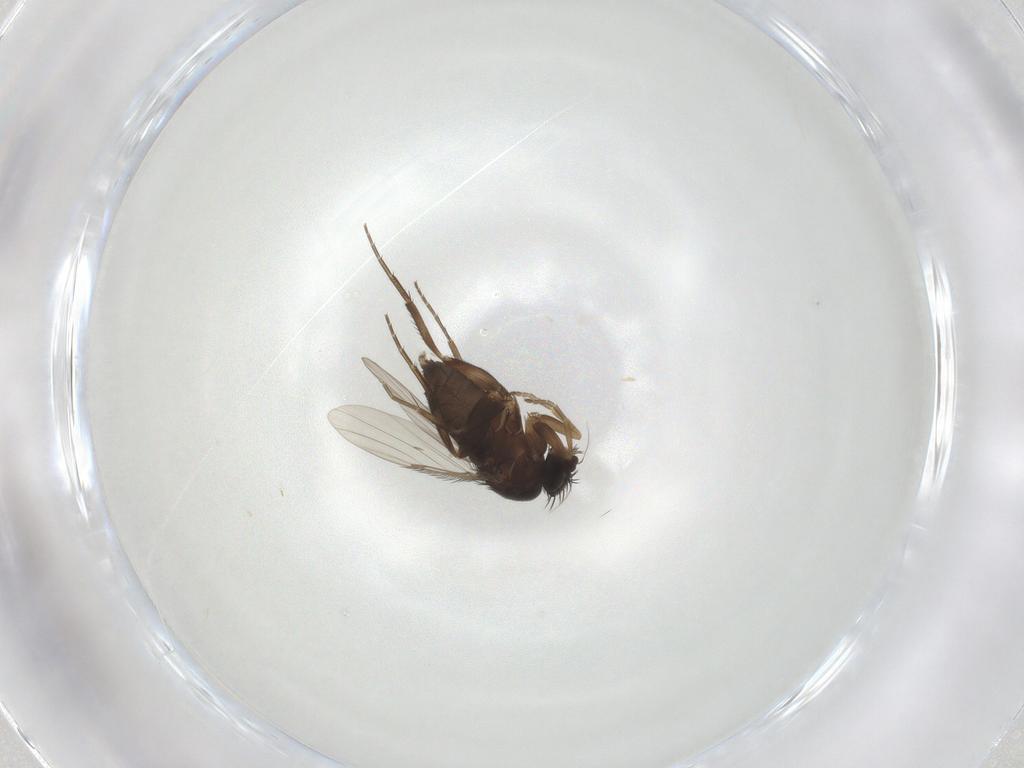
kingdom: Animalia
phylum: Arthropoda
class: Insecta
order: Diptera
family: Phoridae
